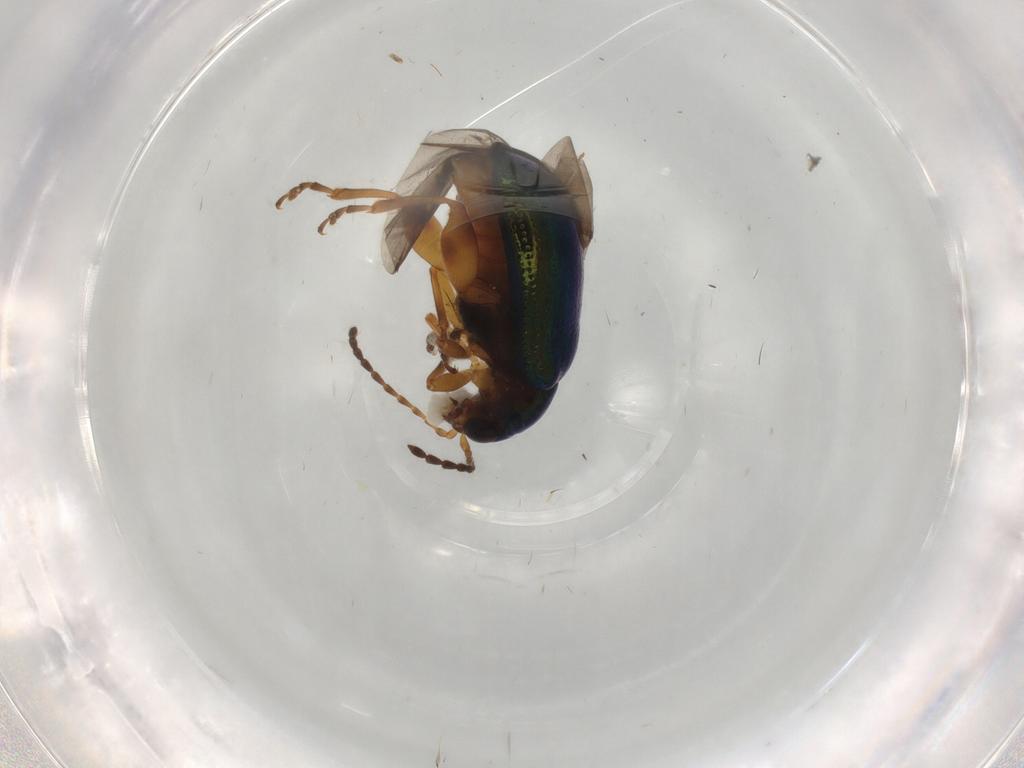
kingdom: Animalia
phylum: Arthropoda
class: Insecta
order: Coleoptera
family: Chrysomelidae
